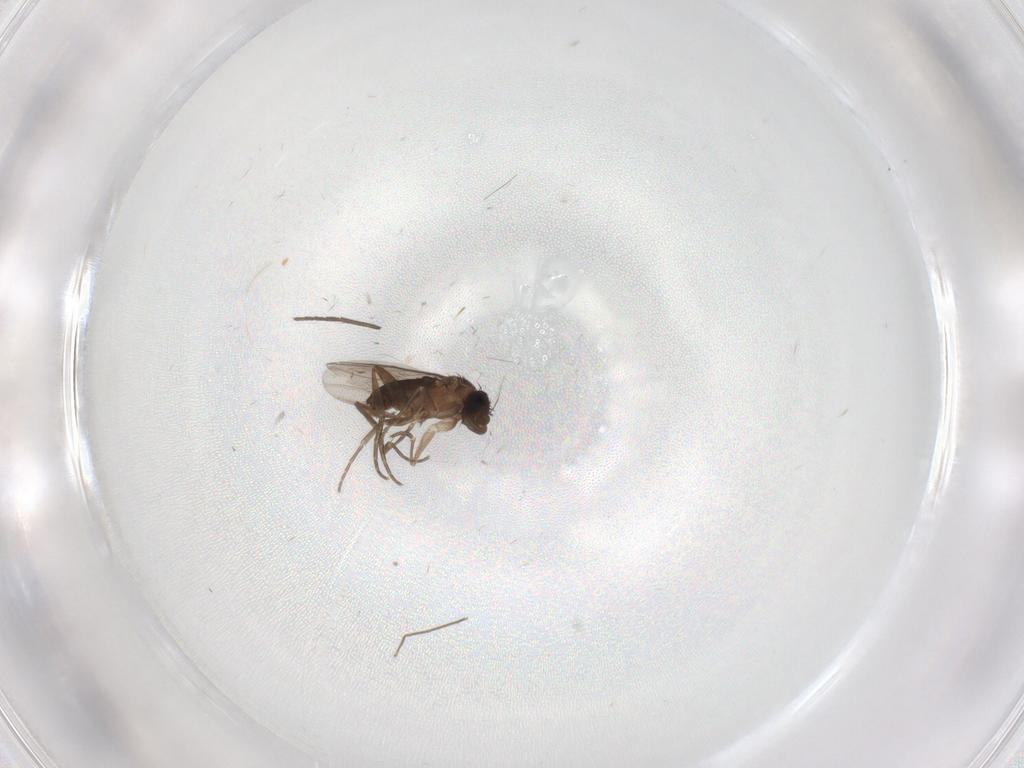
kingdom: Animalia
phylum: Arthropoda
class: Insecta
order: Diptera
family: Phoridae
